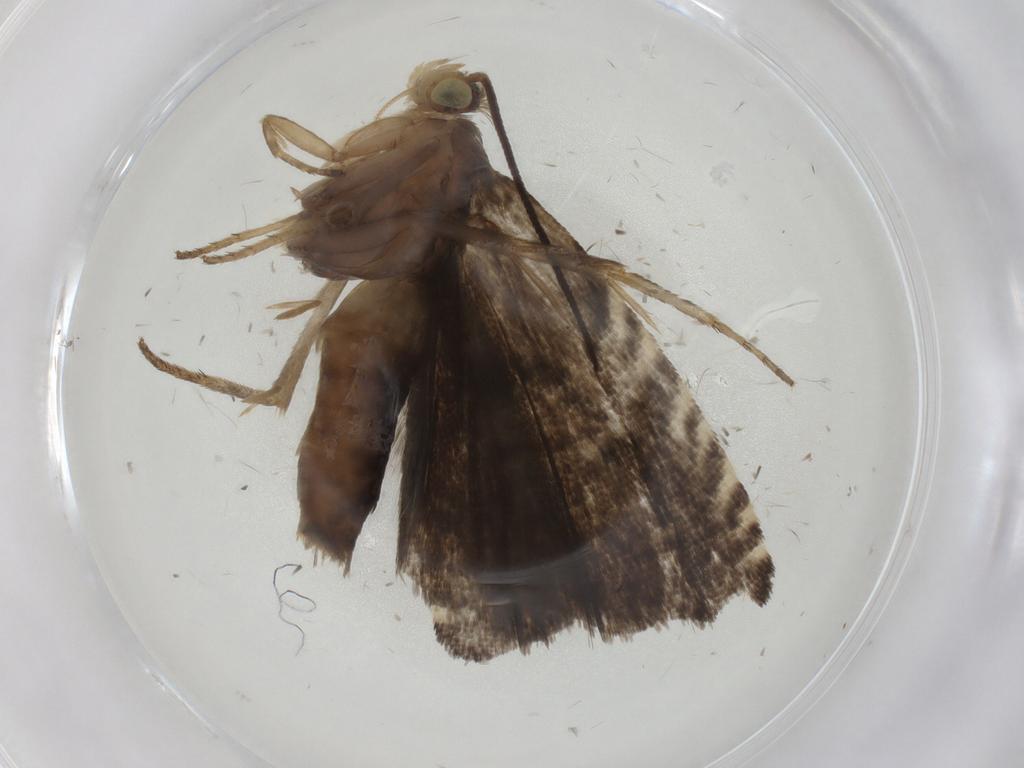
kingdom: Animalia
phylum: Arthropoda
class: Insecta
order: Lepidoptera
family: Tortricidae
